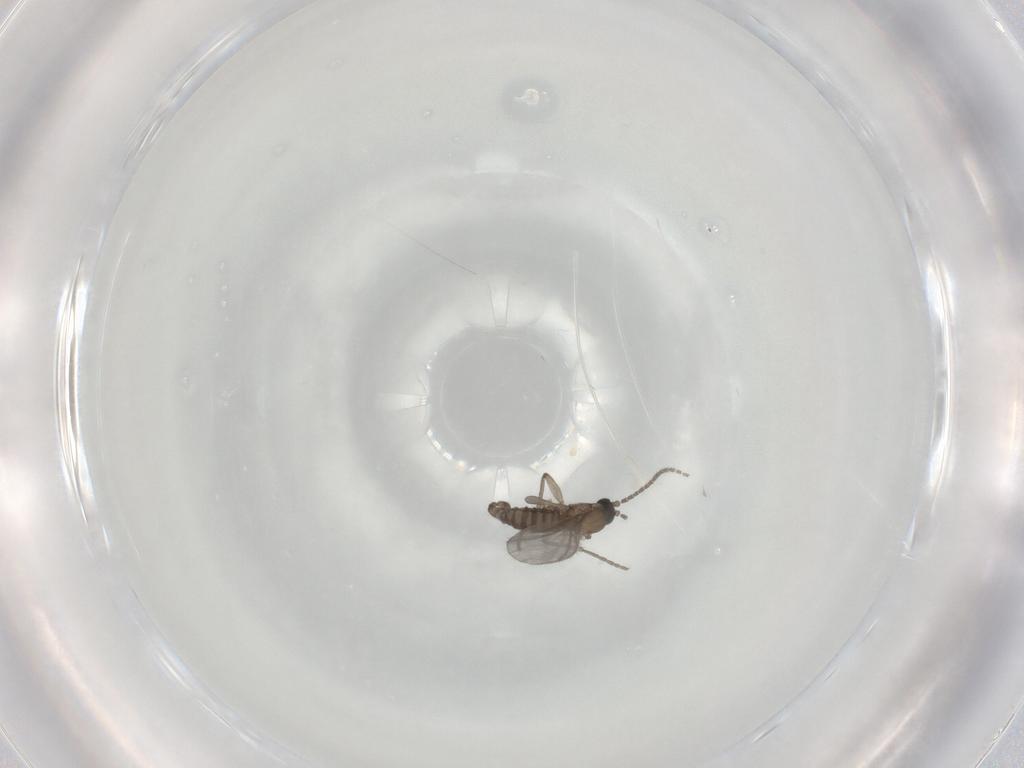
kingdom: Animalia
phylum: Arthropoda
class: Insecta
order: Diptera
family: Sciaridae
